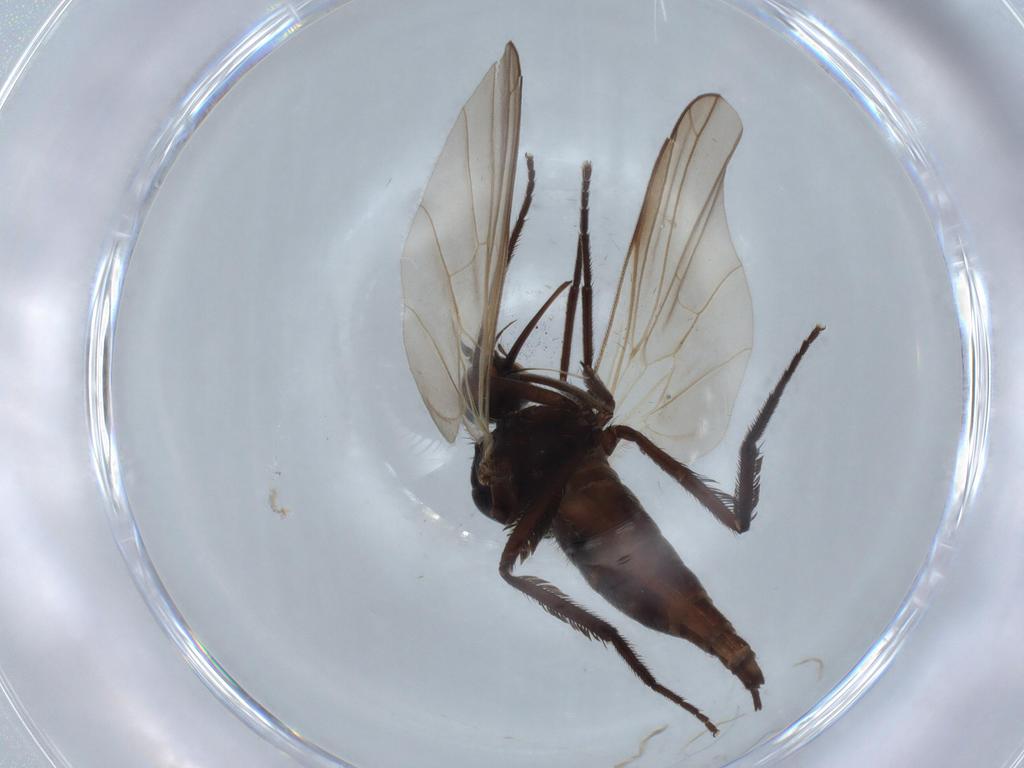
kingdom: Animalia
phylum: Arthropoda
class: Insecta
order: Diptera
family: Empididae
